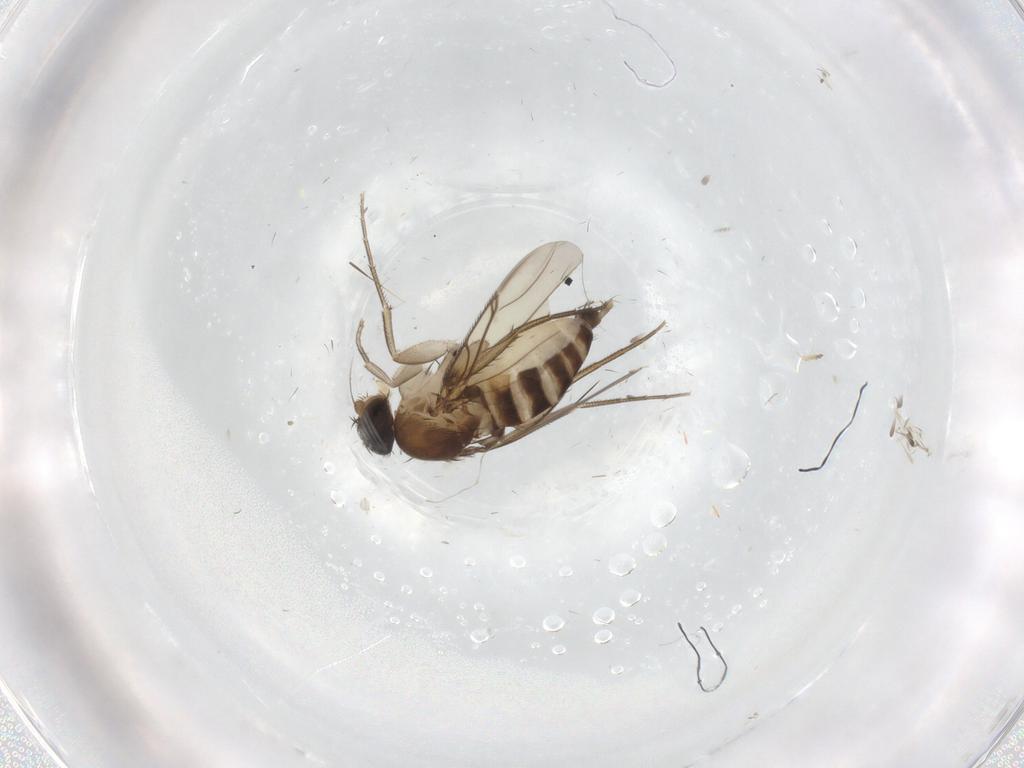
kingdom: Animalia
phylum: Arthropoda
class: Insecta
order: Diptera
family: Phoridae
